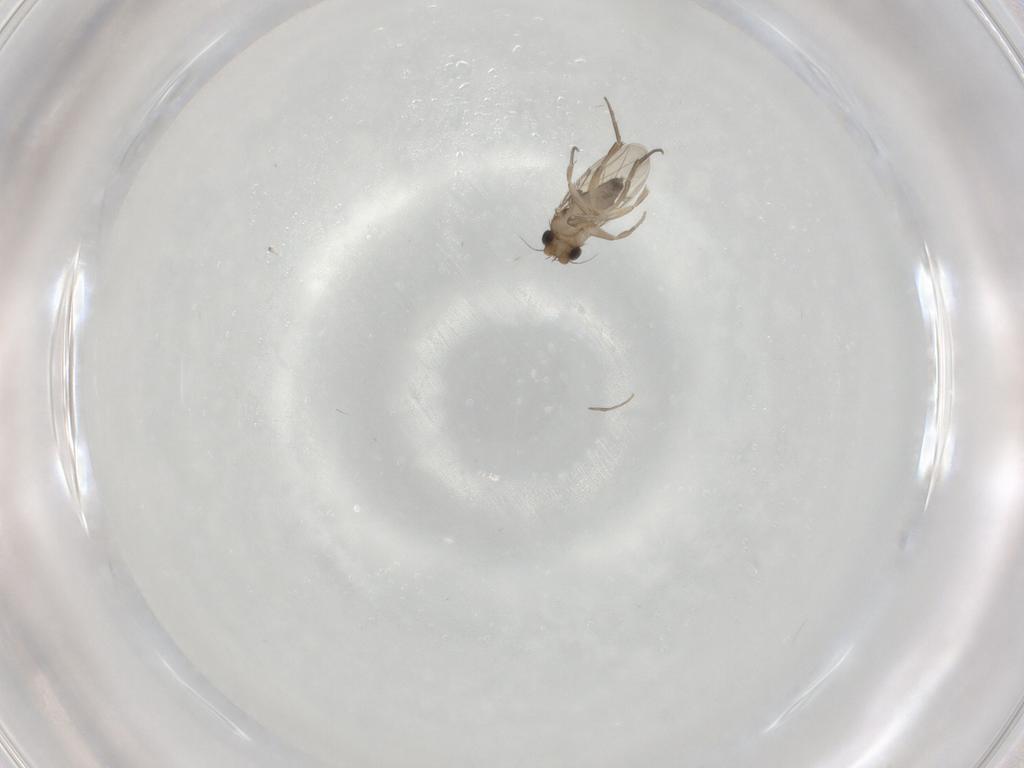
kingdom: Animalia
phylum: Arthropoda
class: Insecta
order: Diptera
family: Phoridae
